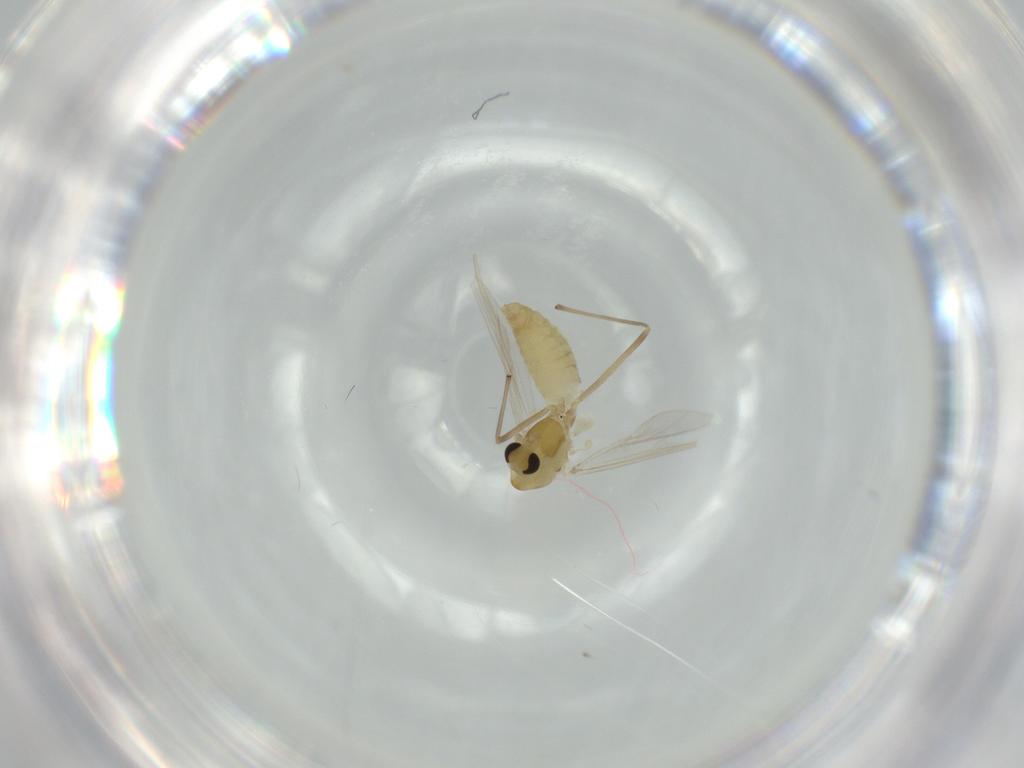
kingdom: Animalia
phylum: Arthropoda
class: Insecta
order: Diptera
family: Chironomidae
